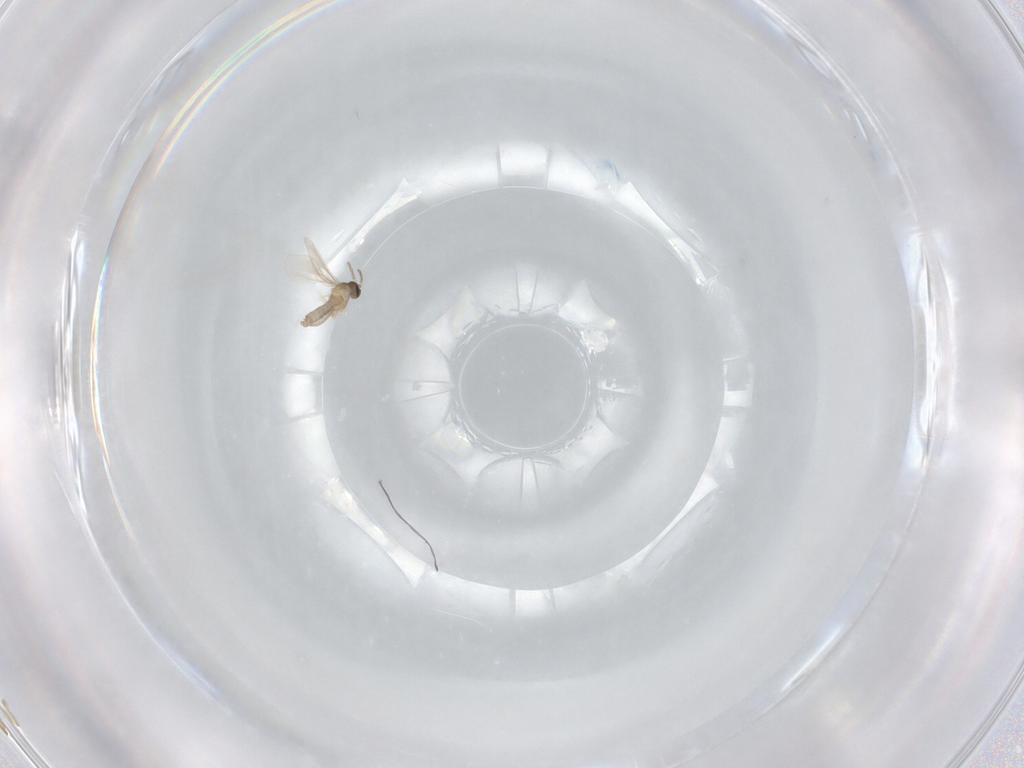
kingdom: Animalia
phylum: Arthropoda
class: Insecta
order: Diptera
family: Cecidomyiidae
